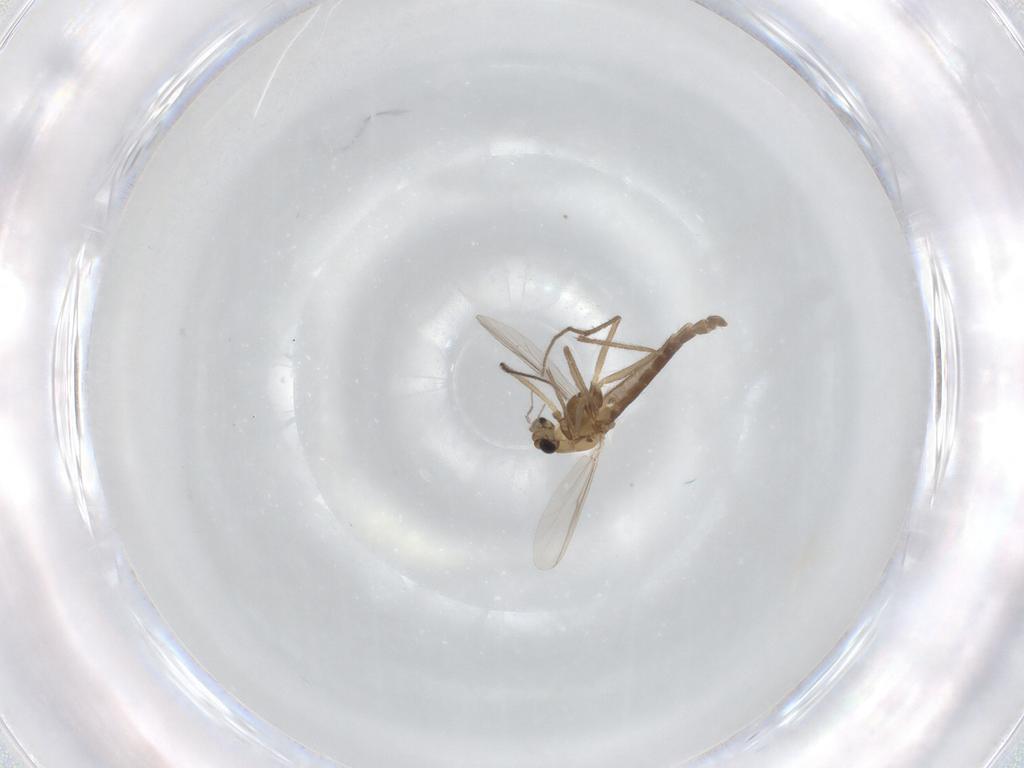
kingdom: Animalia
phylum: Arthropoda
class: Insecta
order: Diptera
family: Chironomidae
